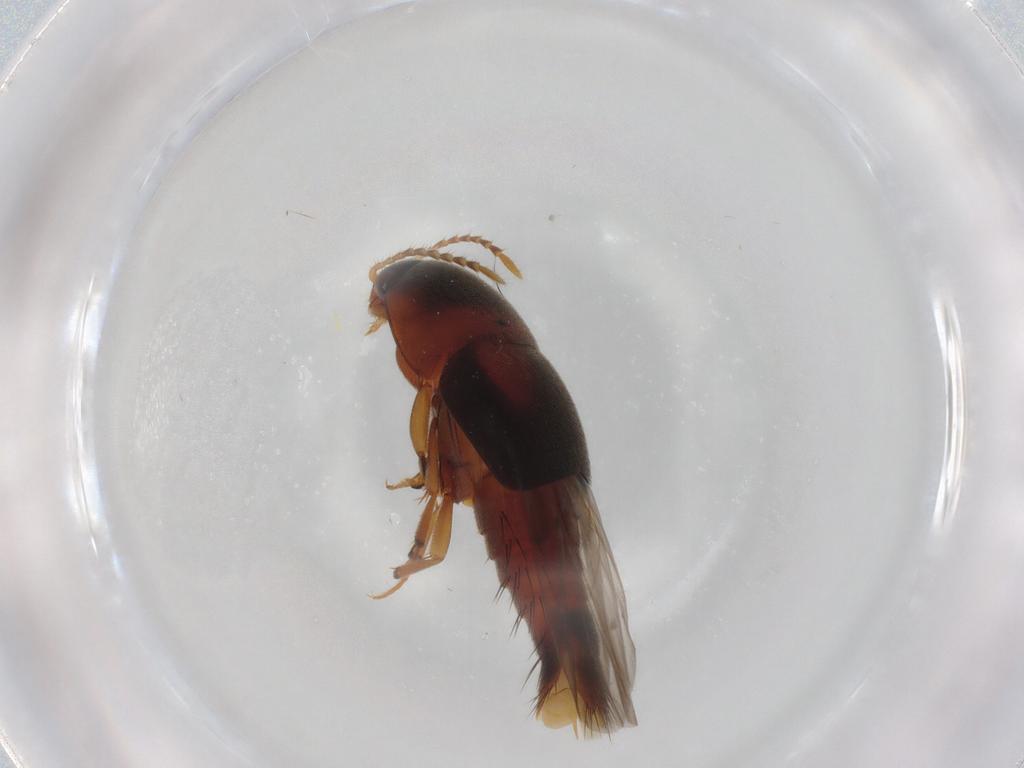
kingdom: Animalia
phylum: Arthropoda
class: Insecta
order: Coleoptera
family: Staphylinidae
